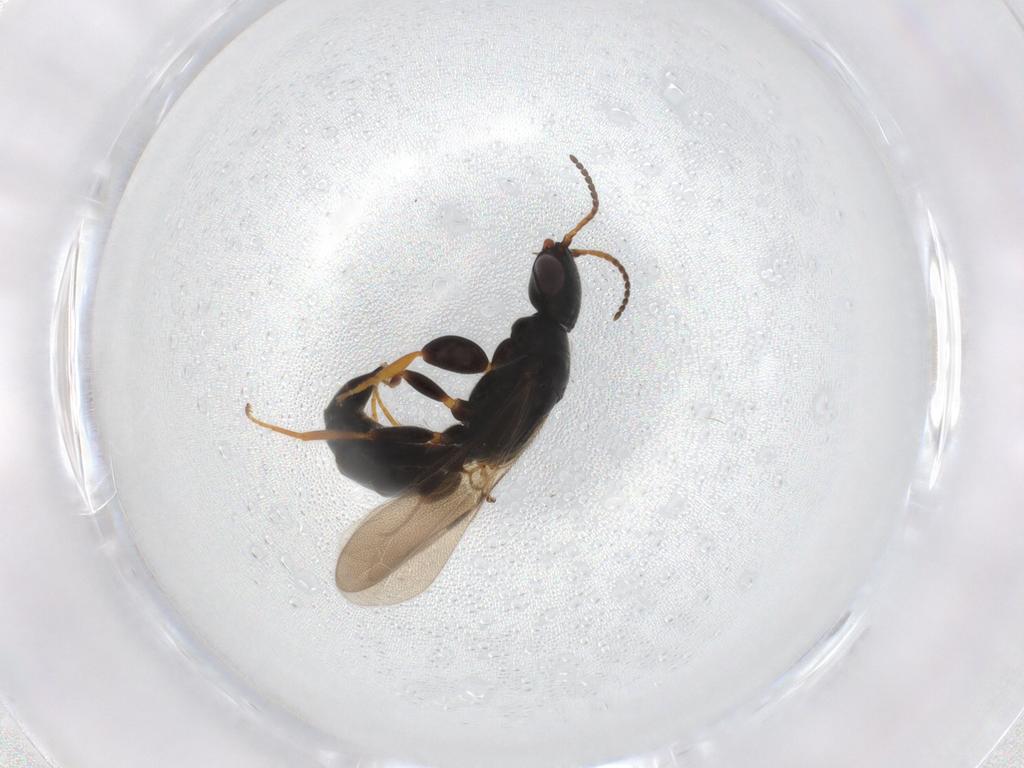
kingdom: Animalia
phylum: Arthropoda
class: Insecta
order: Hymenoptera
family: Bethylidae
